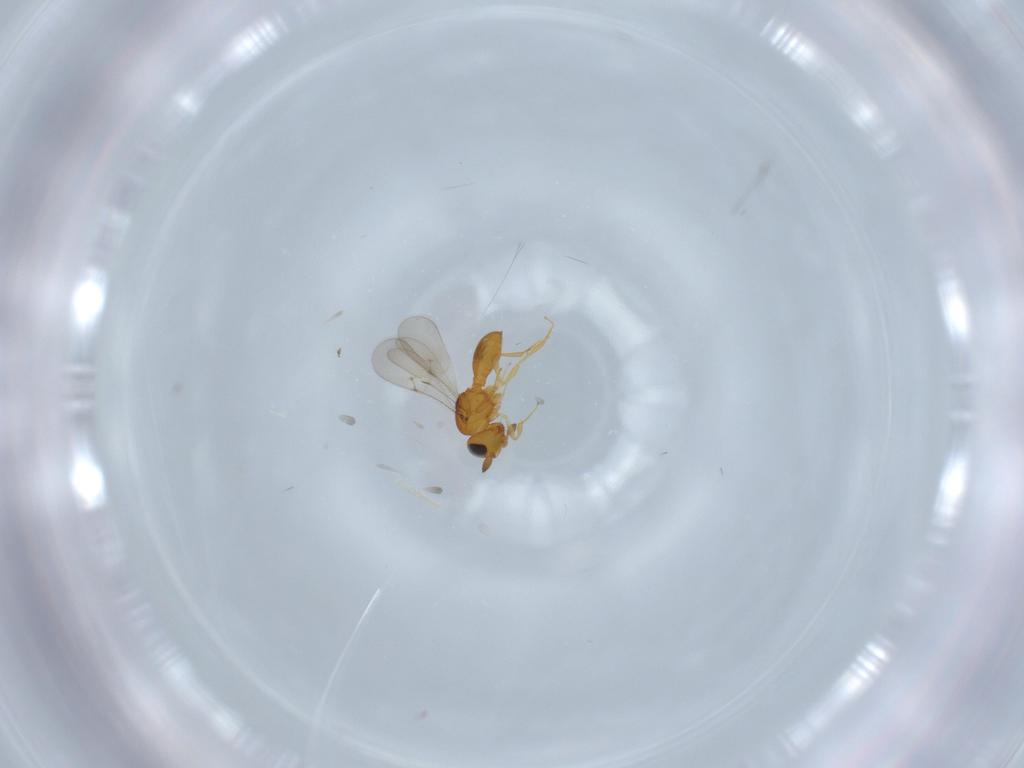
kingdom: Animalia
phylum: Arthropoda
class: Insecta
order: Hymenoptera
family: Scelionidae
